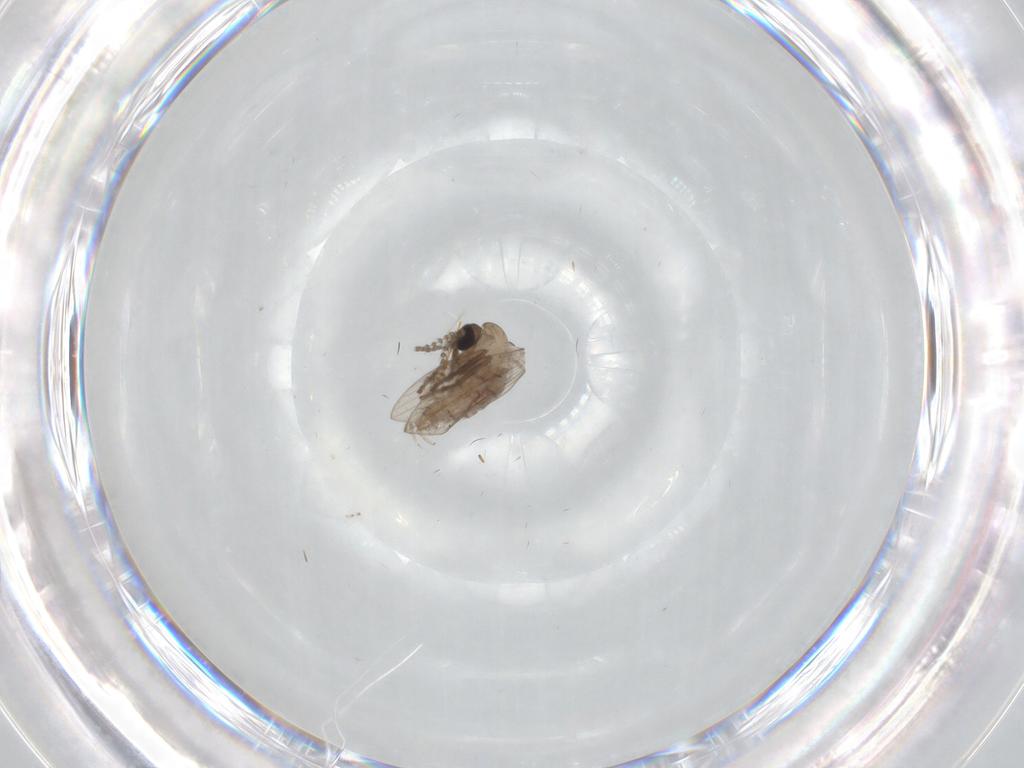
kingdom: Animalia
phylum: Arthropoda
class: Insecta
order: Diptera
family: Psychodidae
